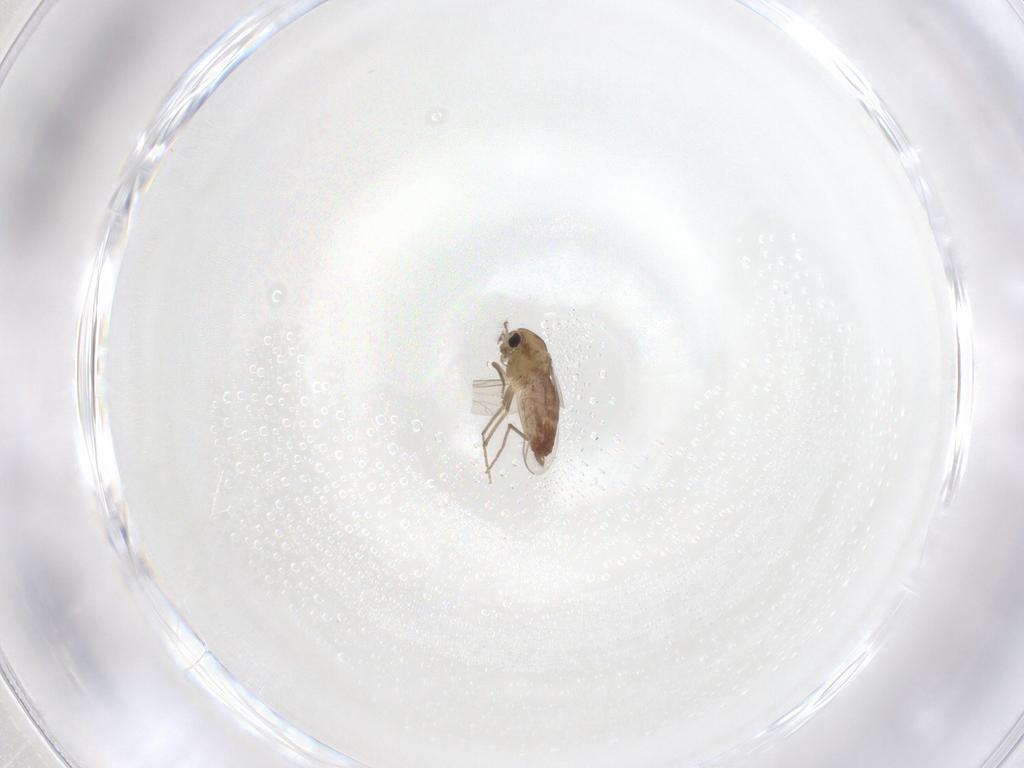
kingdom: Animalia
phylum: Arthropoda
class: Insecta
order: Diptera
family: Chironomidae
